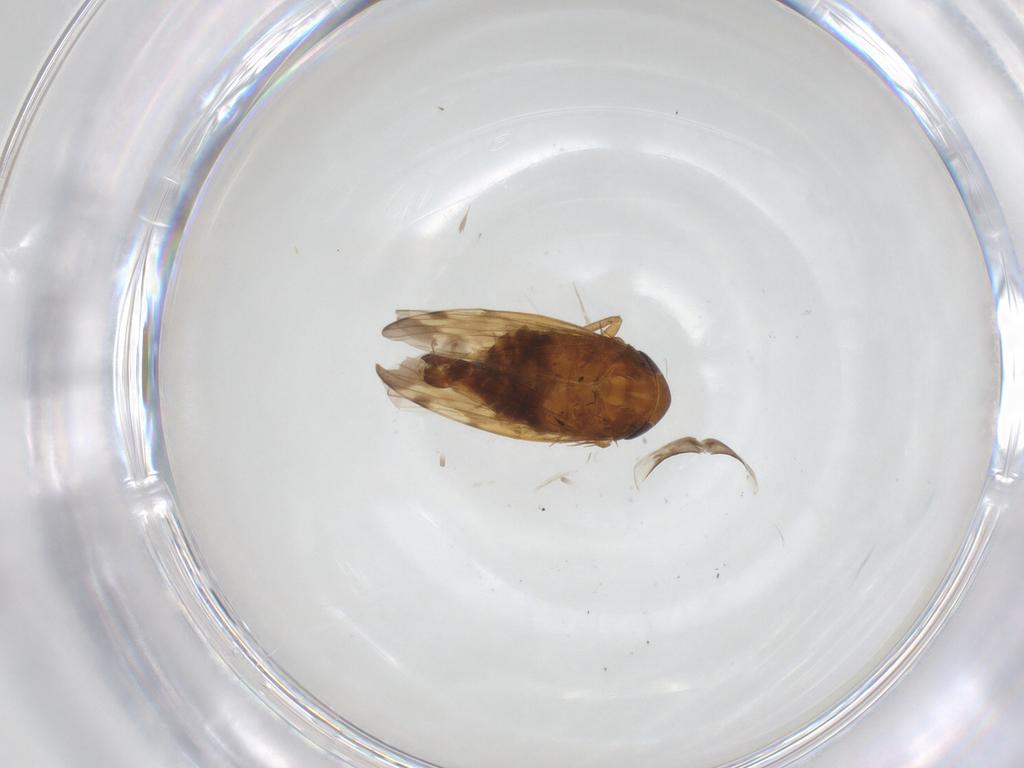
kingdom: Animalia
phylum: Arthropoda
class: Insecta
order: Hemiptera
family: Cicadellidae
